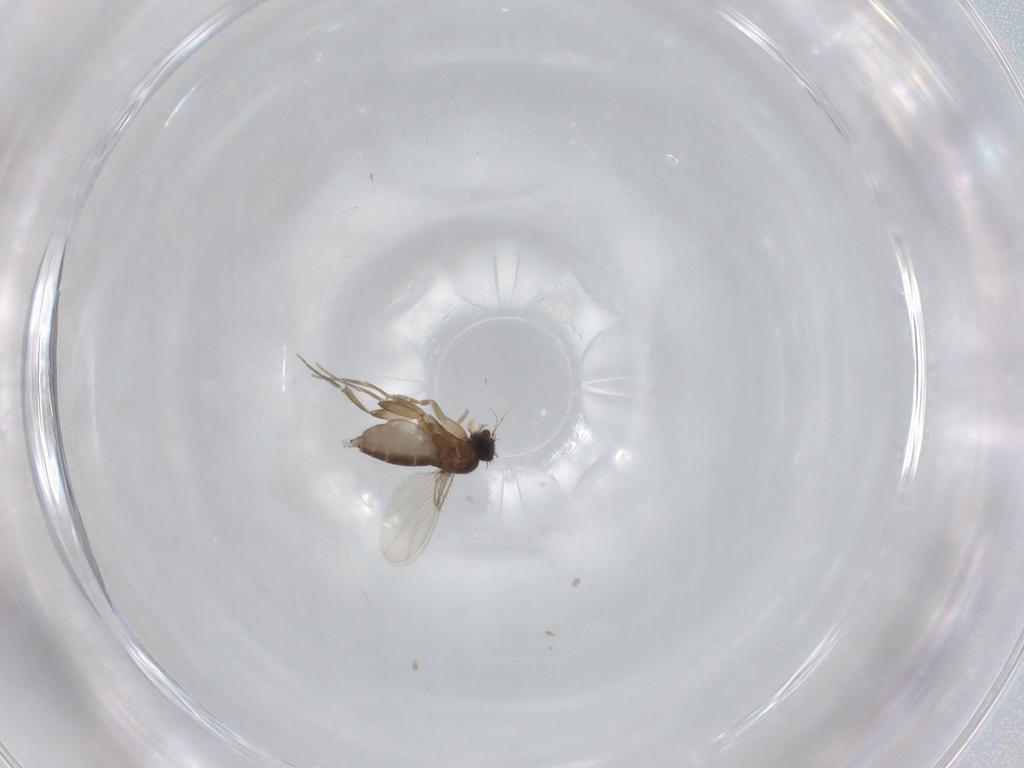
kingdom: Animalia
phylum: Arthropoda
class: Insecta
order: Diptera
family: Phoridae
